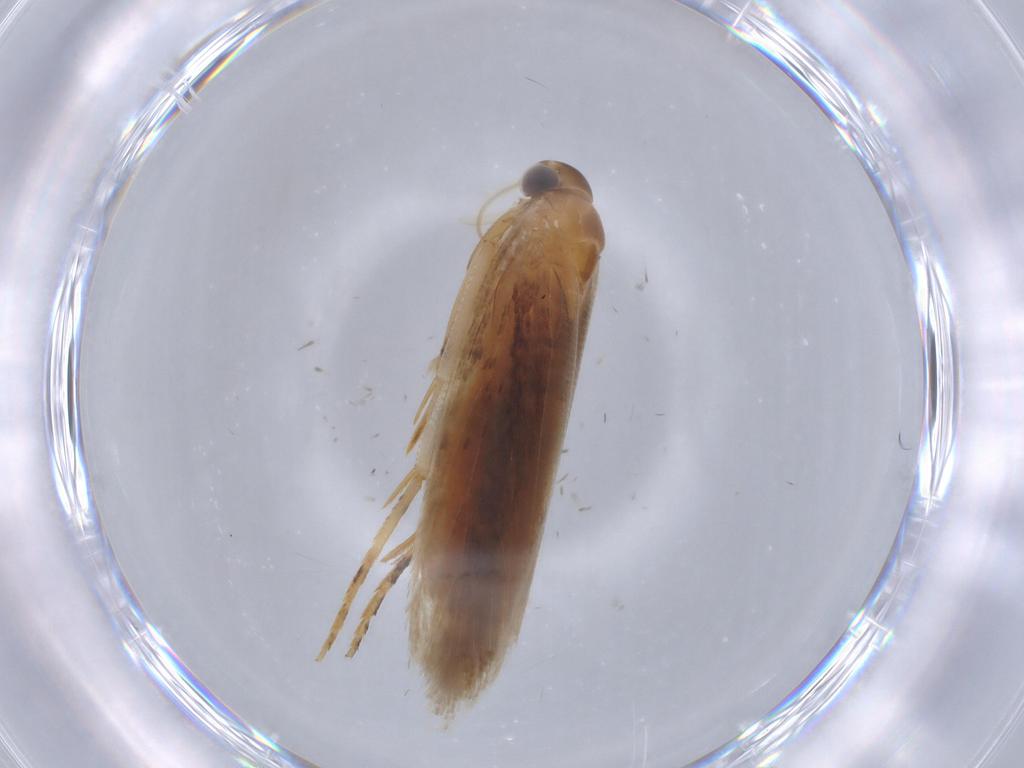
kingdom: Animalia
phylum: Arthropoda
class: Insecta
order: Lepidoptera
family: Gelechiidae
